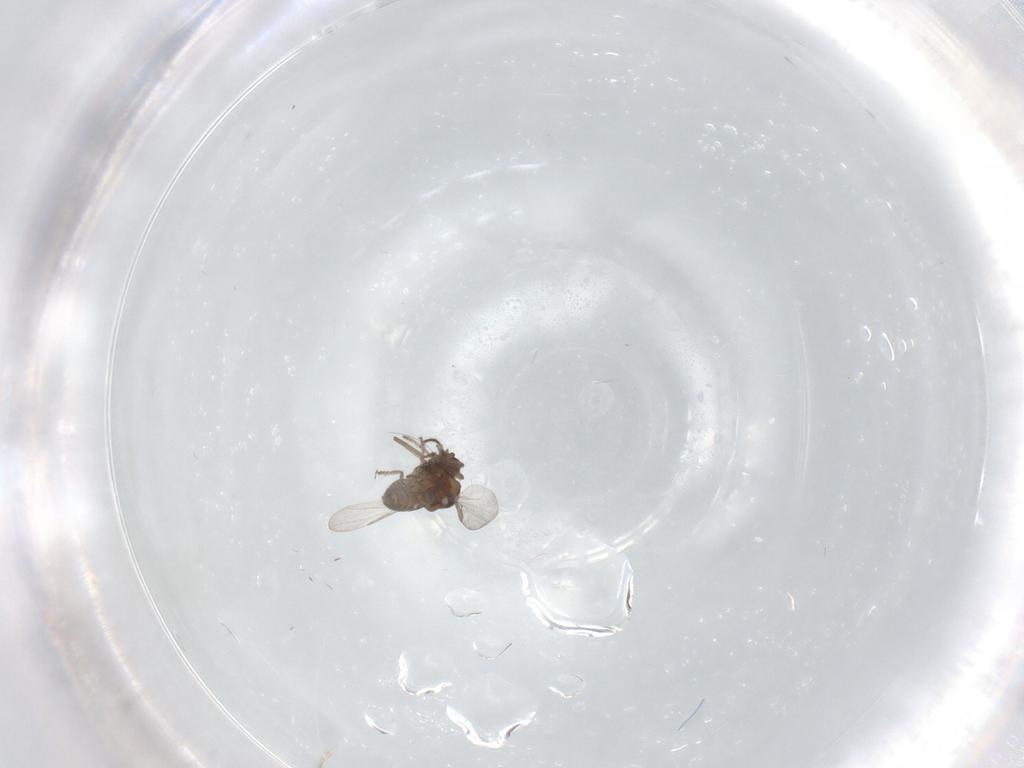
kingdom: Animalia
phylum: Arthropoda
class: Insecta
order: Diptera
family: Ceratopogonidae
